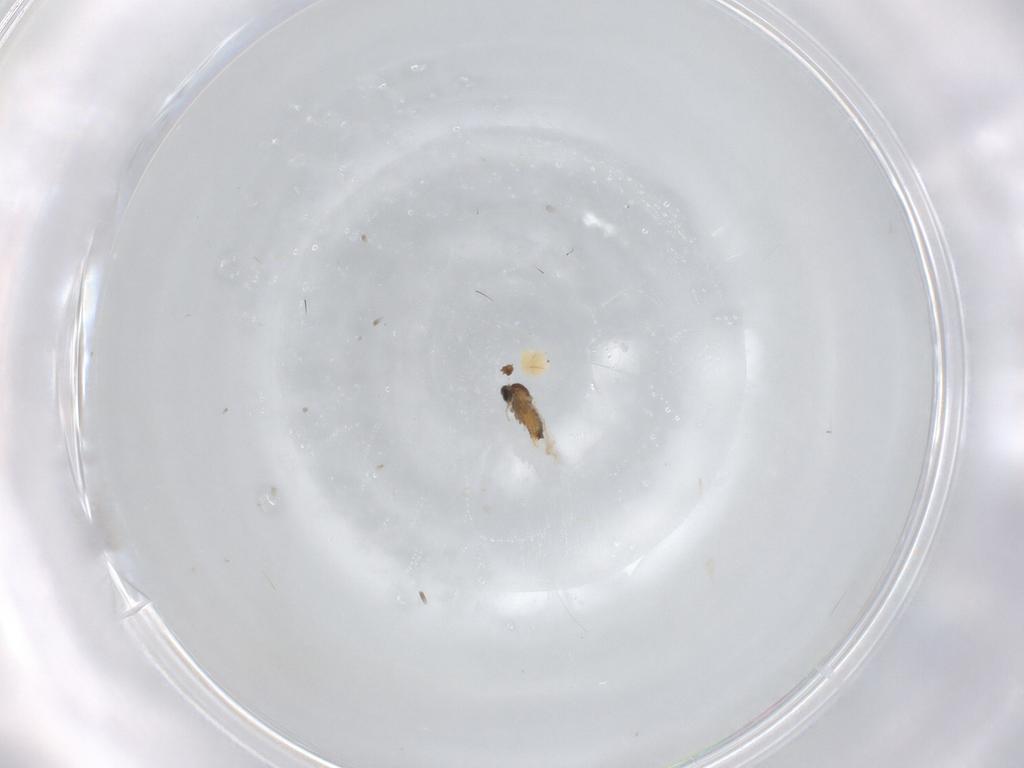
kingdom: Animalia
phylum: Arthropoda
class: Insecta
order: Diptera
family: Cecidomyiidae
